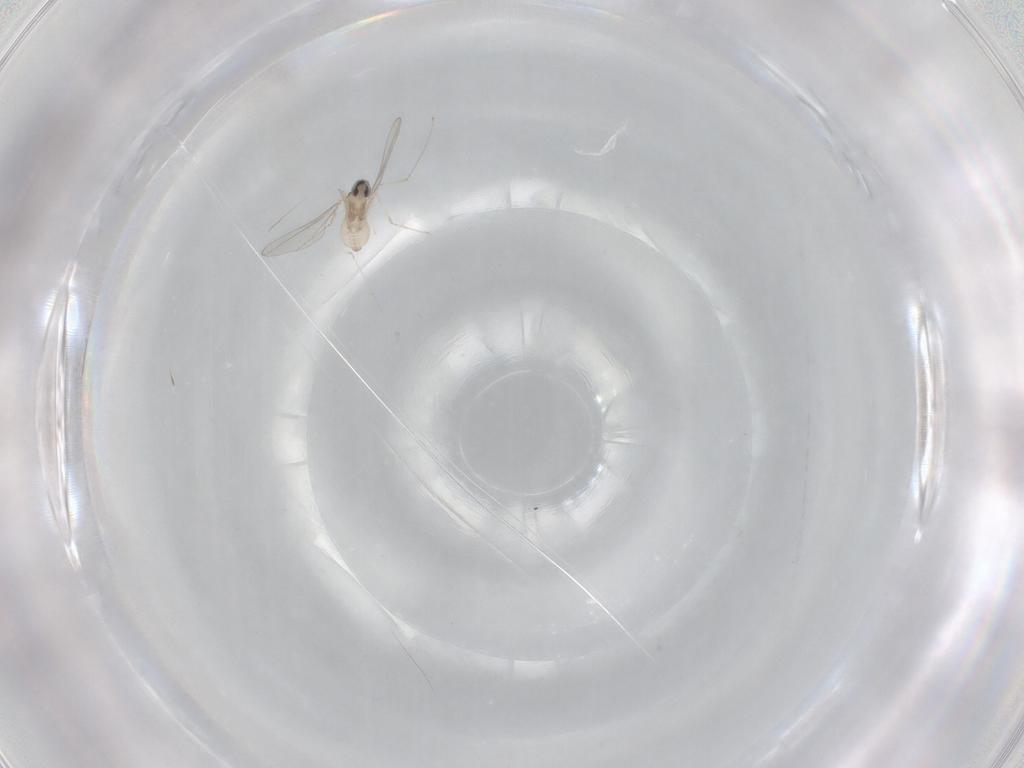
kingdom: Animalia
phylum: Arthropoda
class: Insecta
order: Diptera
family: Cecidomyiidae
